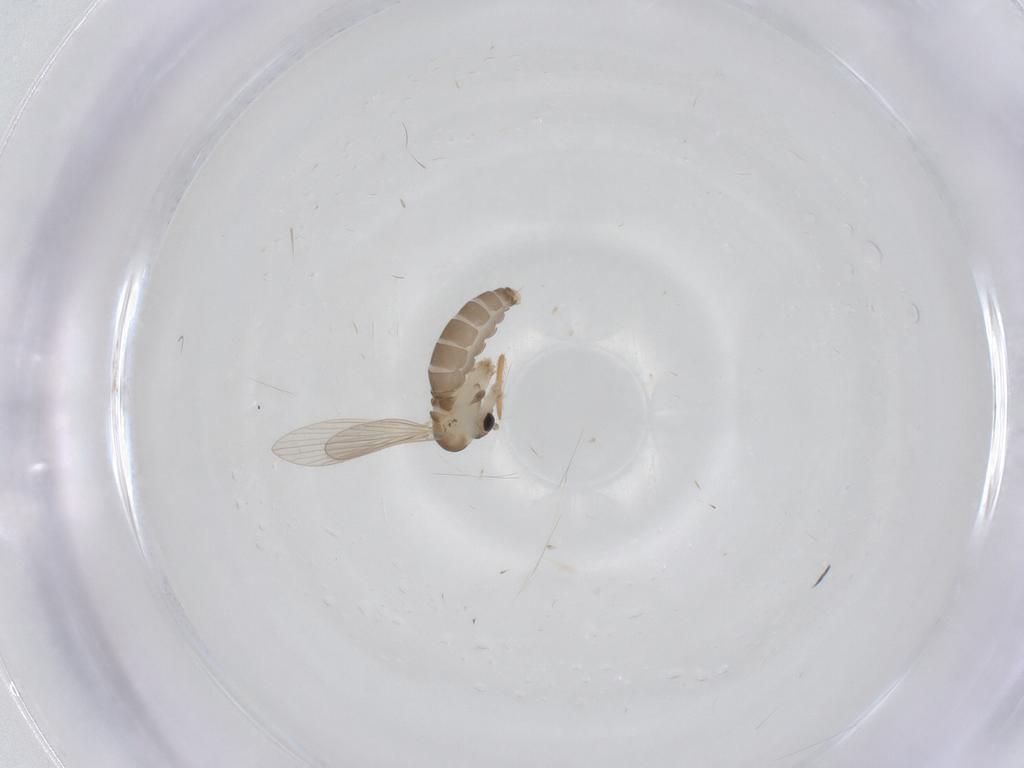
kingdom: Animalia
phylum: Arthropoda
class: Insecta
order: Diptera
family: Psychodidae
